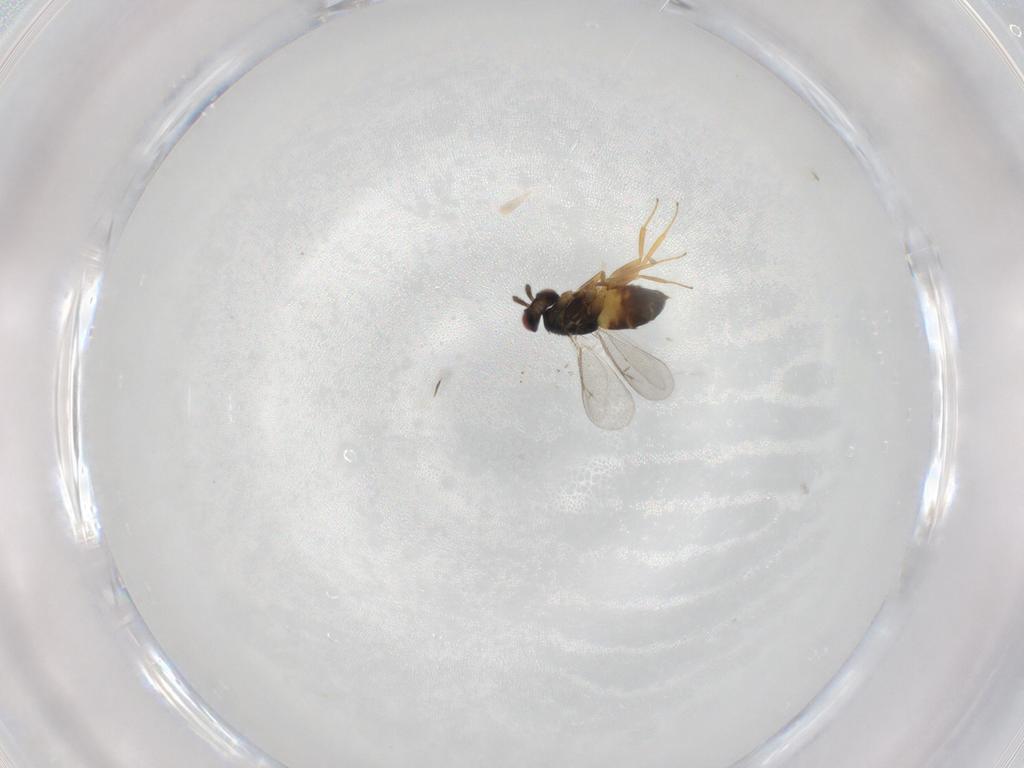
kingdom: Animalia
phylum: Arthropoda
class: Insecta
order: Hymenoptera
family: Eulophidae
